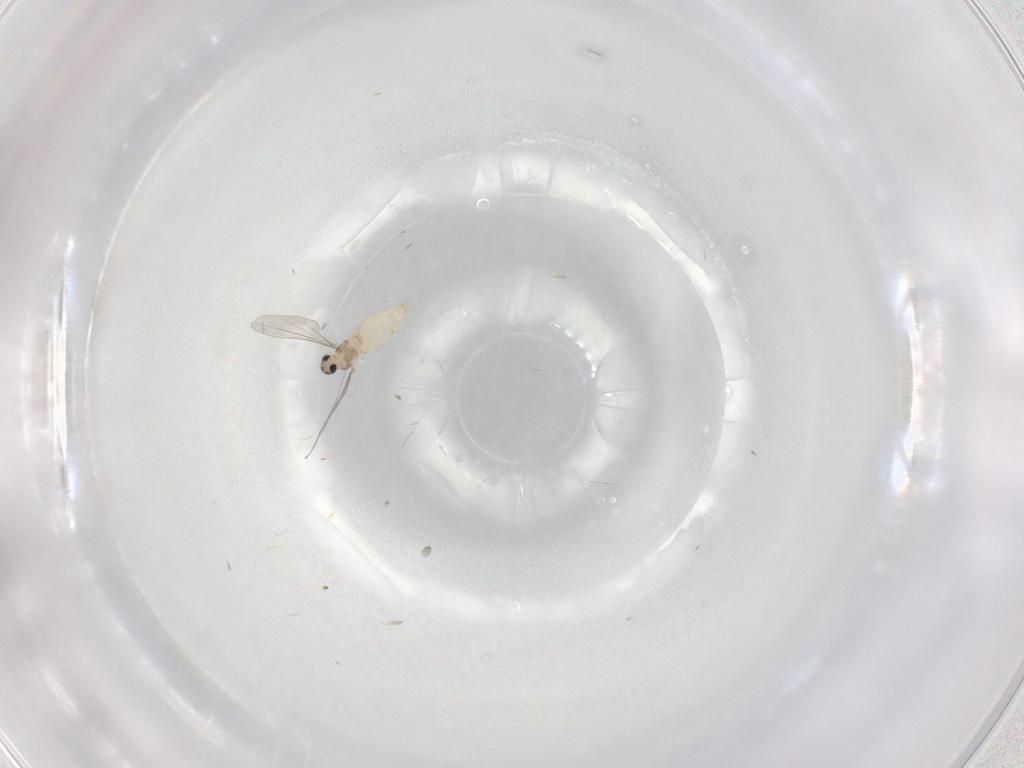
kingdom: Animalia
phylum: Arthropoda
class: Insecta
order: Diptera
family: Cecidomyiidae
